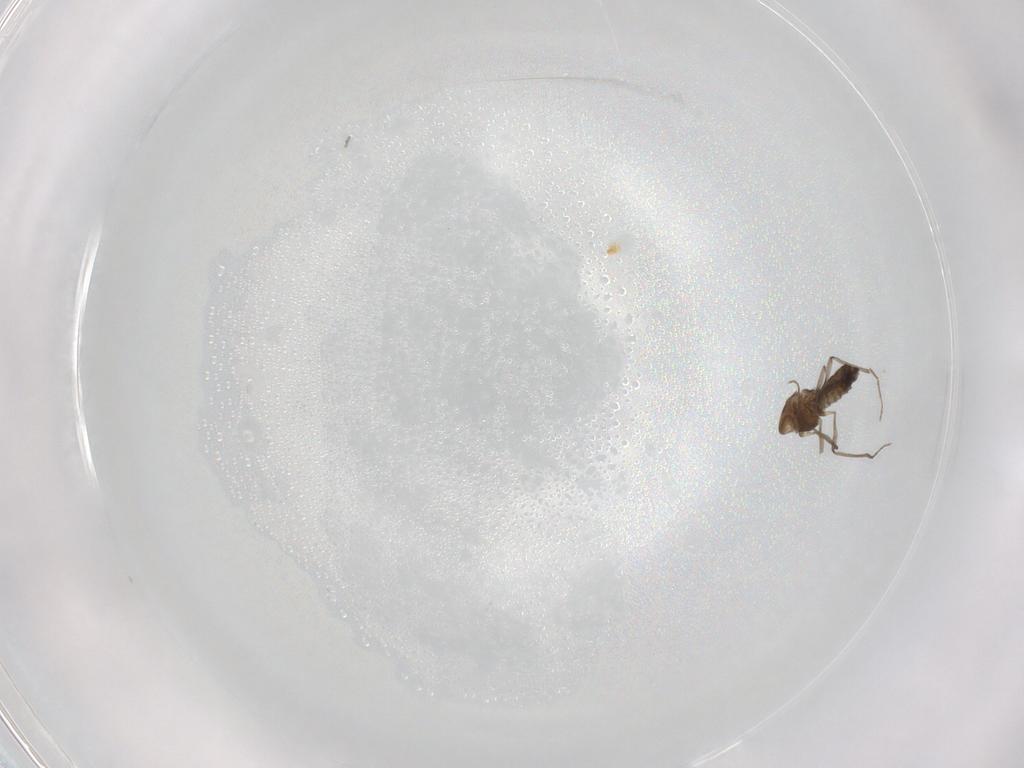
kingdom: Animalia
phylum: Arthropoda
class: Insecta
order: Diptera
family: Chironomidae
